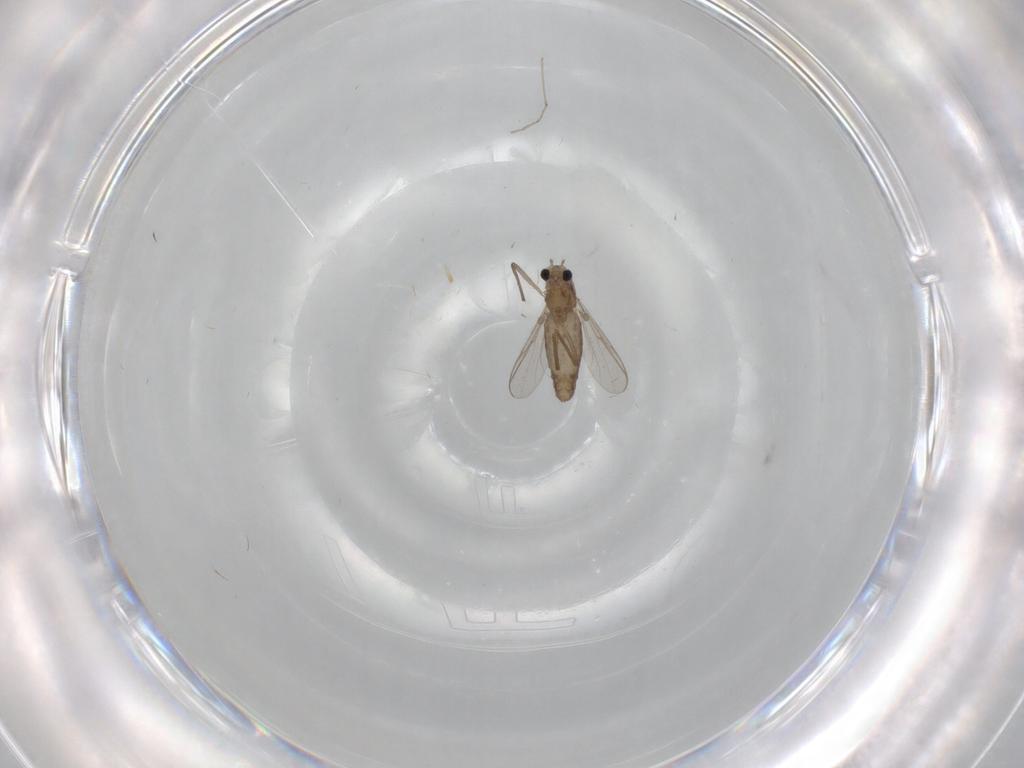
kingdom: Animalia
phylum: Arthropoda
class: Insecta
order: Diptera
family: Chironomidae
